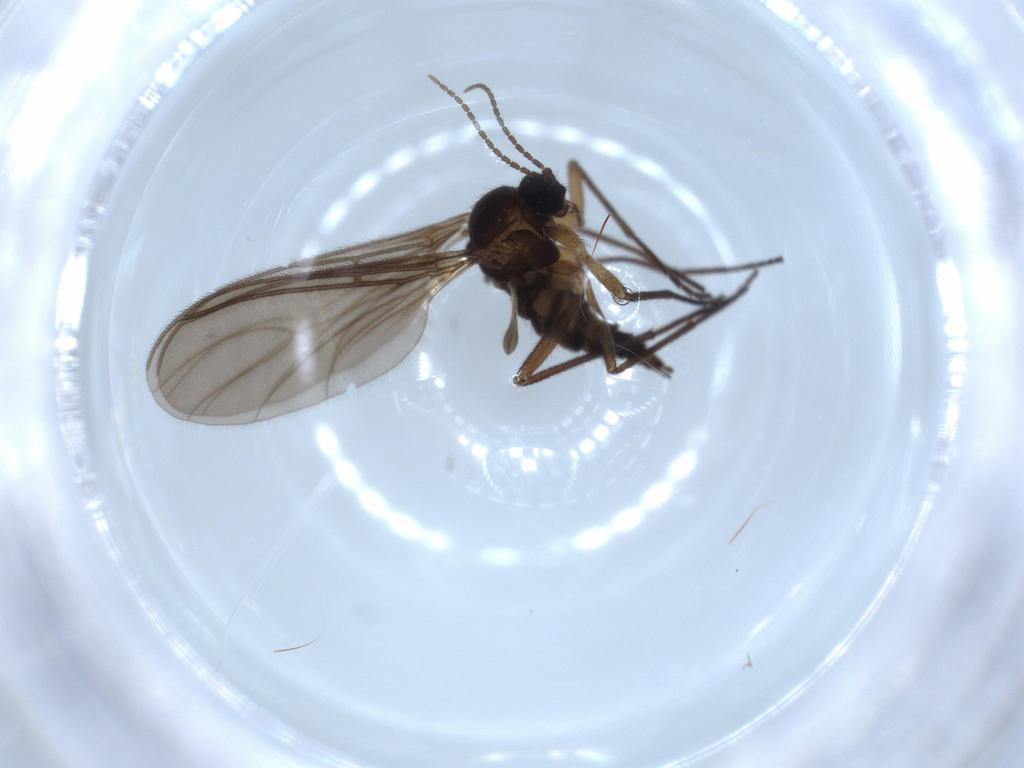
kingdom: Animalia
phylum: Arthropoda
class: Insecta
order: Diptera
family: Sciaridae
